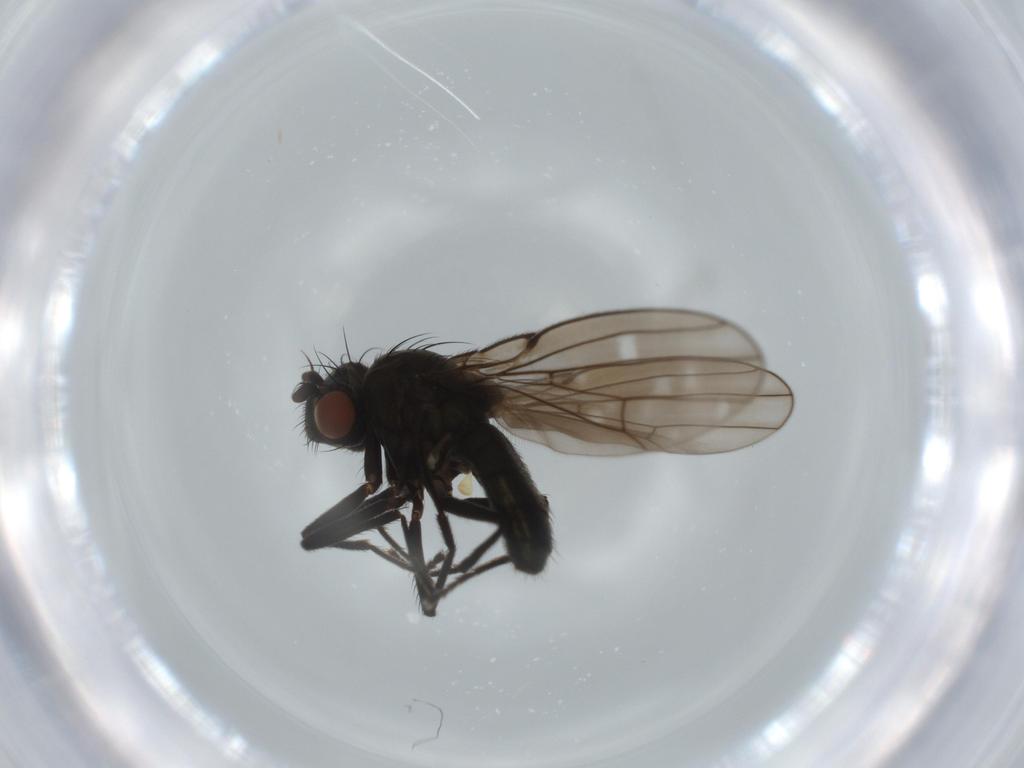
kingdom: Animalia
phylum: Arthropoda
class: Insecta
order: Diptera
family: Ephydridae
